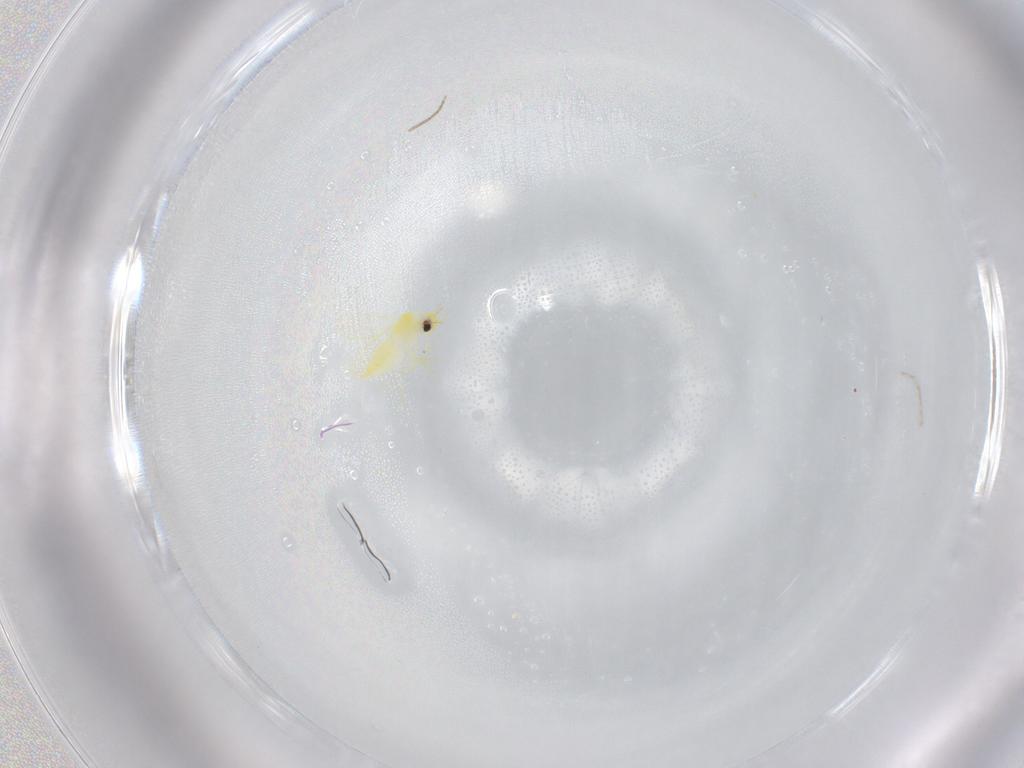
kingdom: Animalia
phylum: Arthropoda
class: Insecta
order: Hemiptera
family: Aleyrodidae
